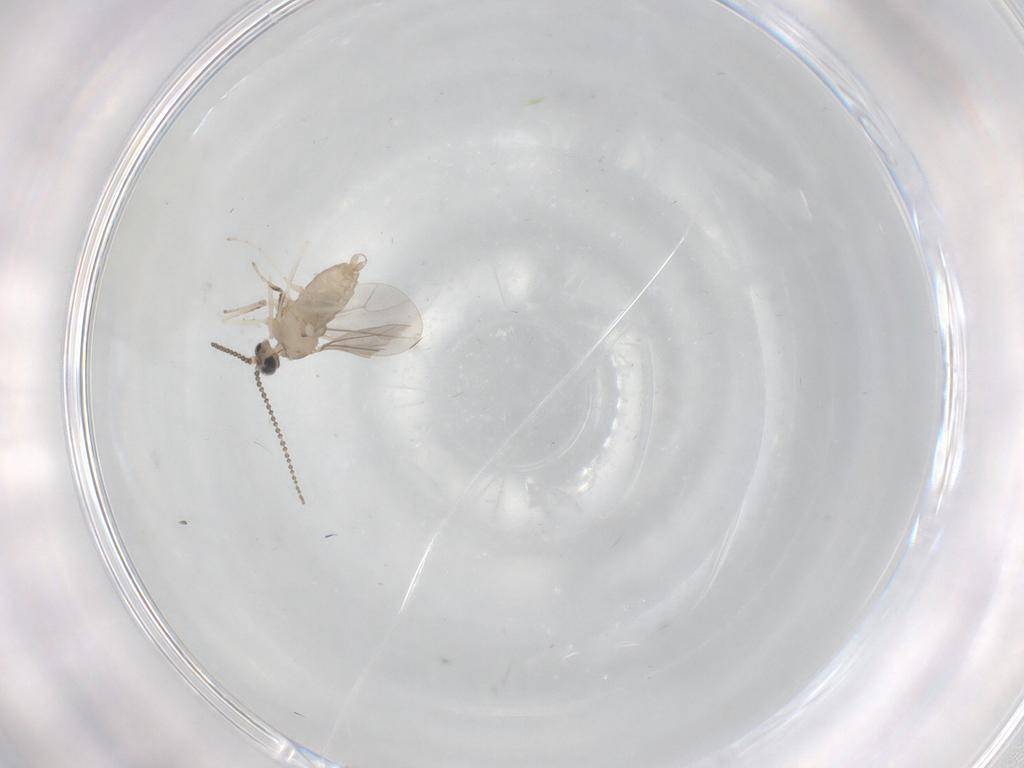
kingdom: Animalia
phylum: Arthropoda
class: Insecta
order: Diptera
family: Cecidomyiidae
